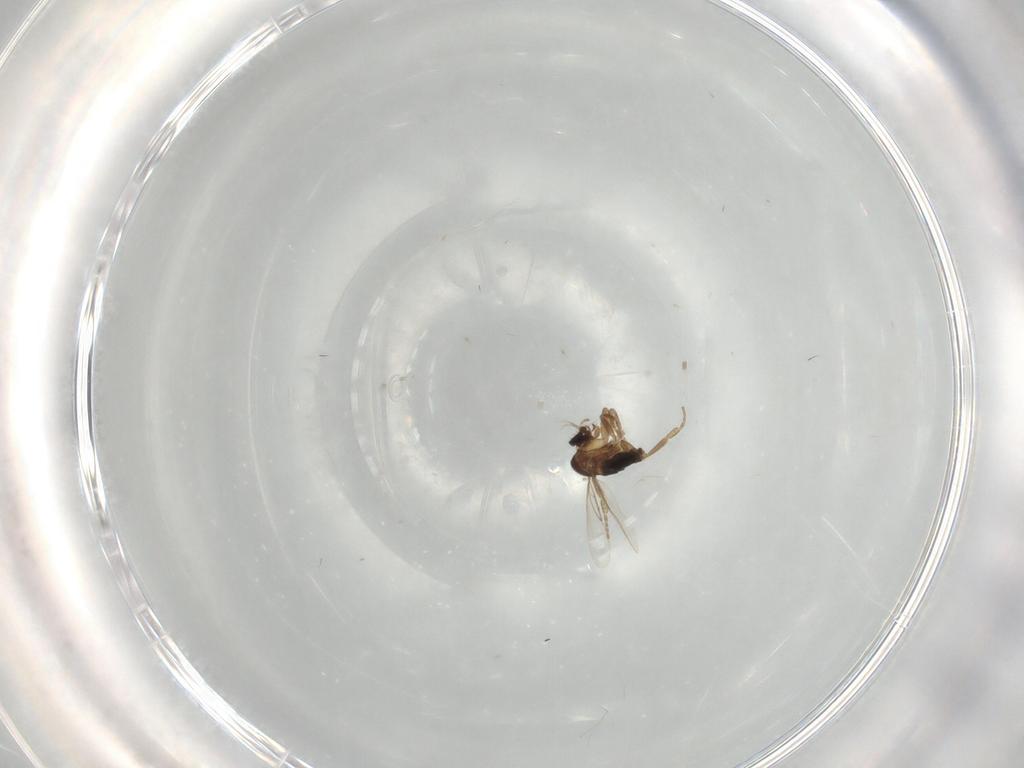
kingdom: Animalia
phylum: Arthropoda
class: Insecta
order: Diptera
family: Phoridae
